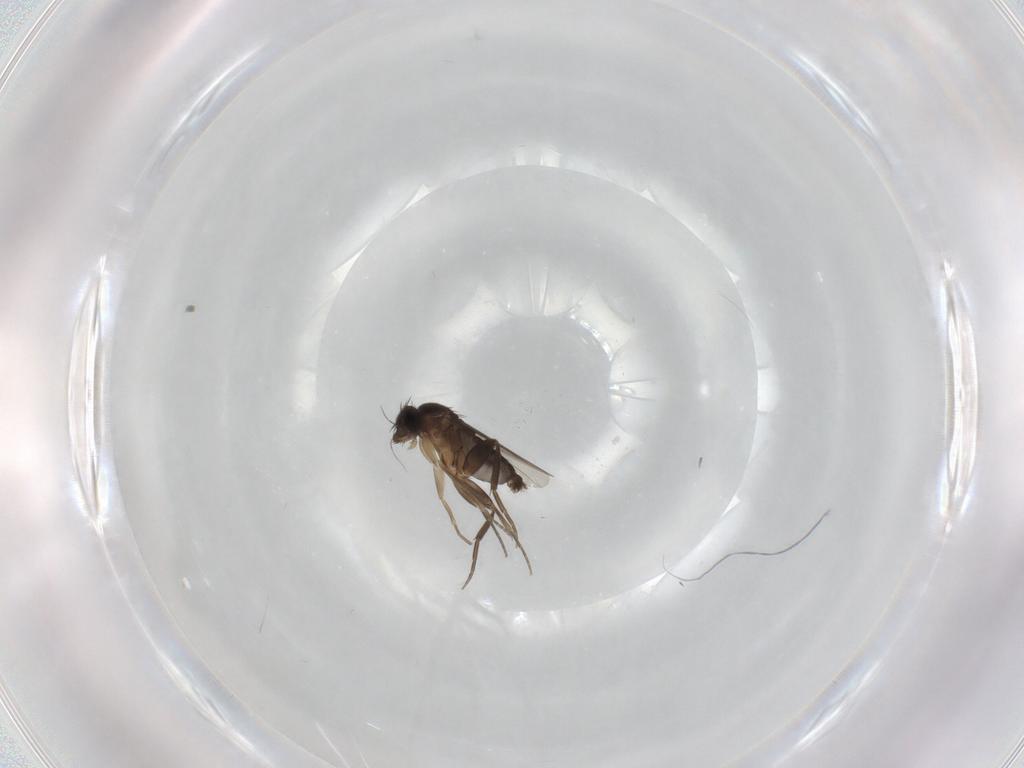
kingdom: Animalia
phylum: Arthropoda
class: Insecta
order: Diptera
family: Phoridae
